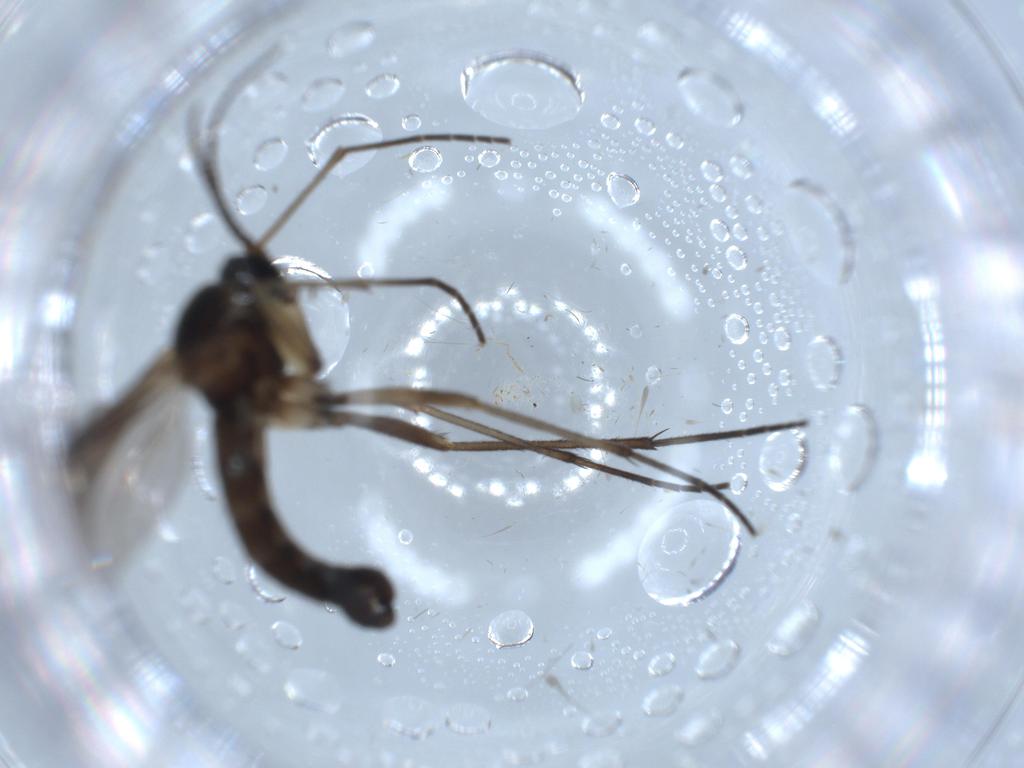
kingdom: Animalia
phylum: Arthropoda
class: Insecta
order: Diptera
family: Sciaridae
